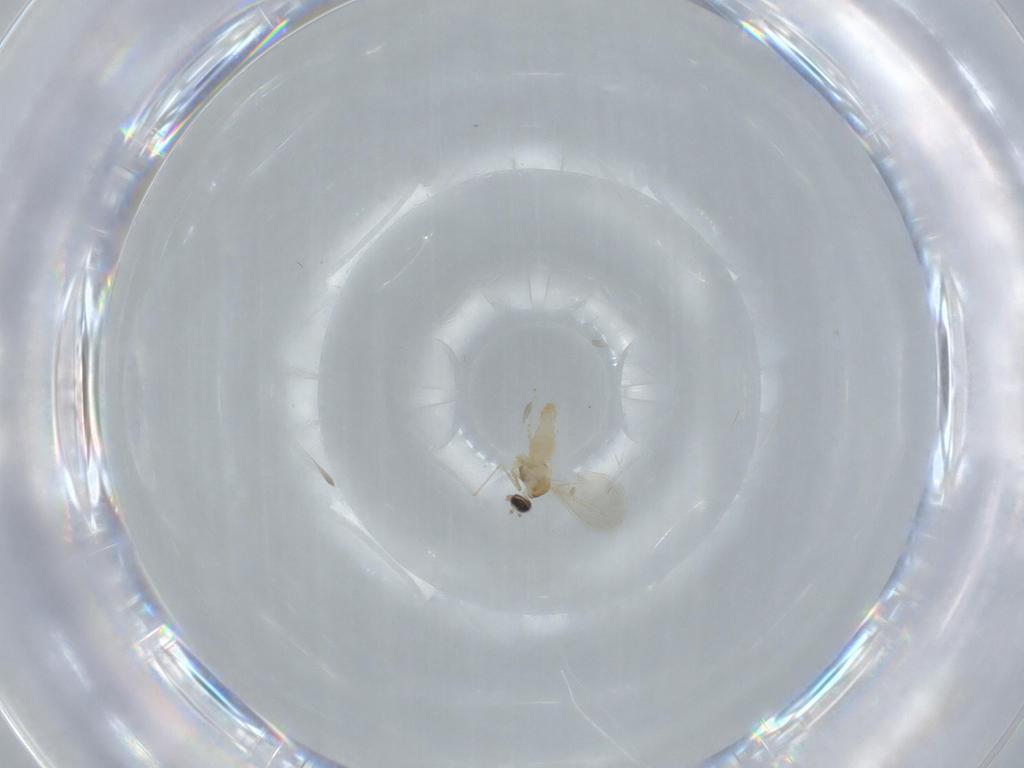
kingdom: Animalia
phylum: Arthropoda
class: Insecta
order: Diptera
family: Cecidomyiidae
